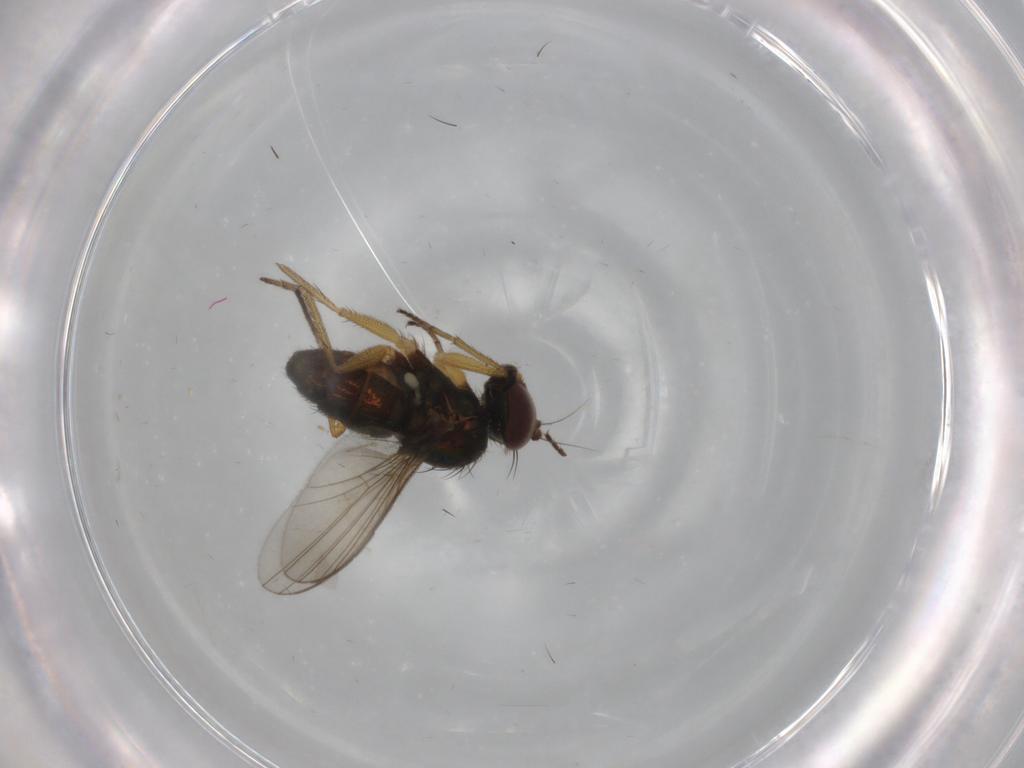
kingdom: Animalia
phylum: Arthropoda
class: Insecta
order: Diptera
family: Dolichopodidae
